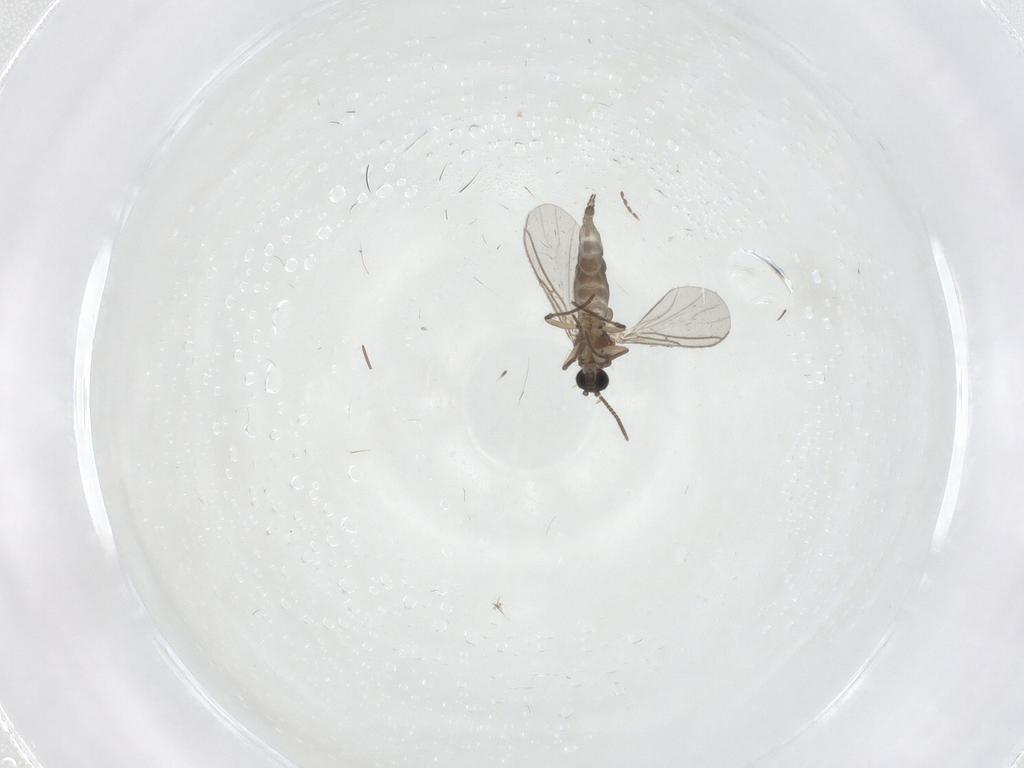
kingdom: Animalia
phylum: Arthropoda
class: Insecta
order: Diptera
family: Psychodidae
